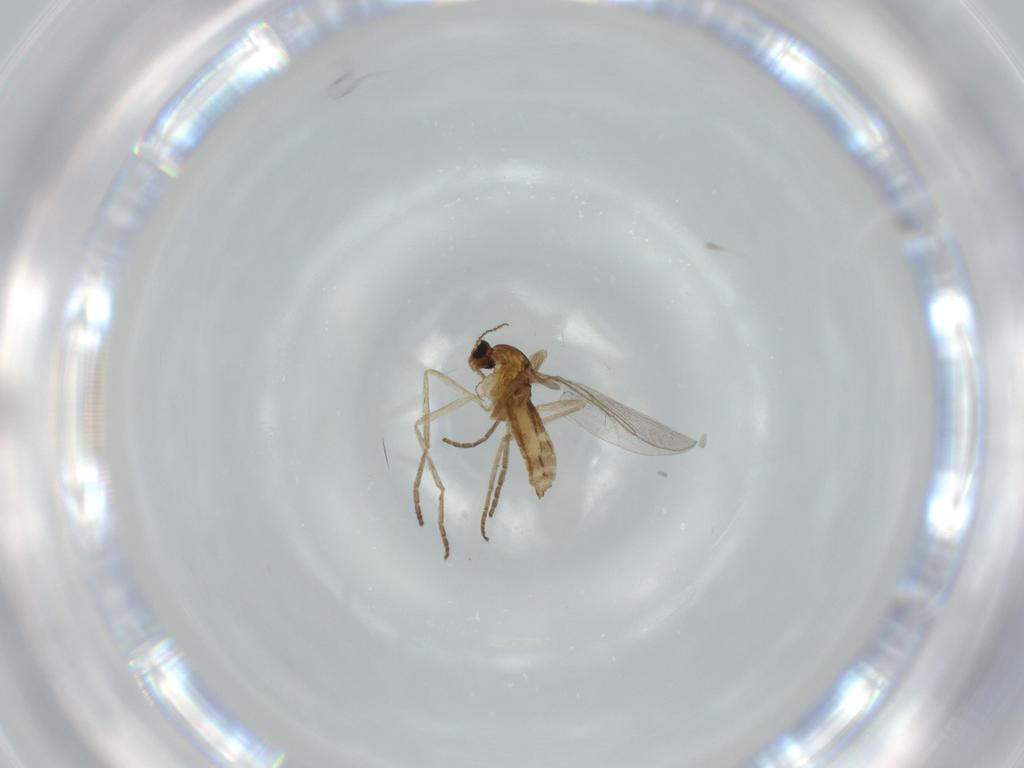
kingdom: Animalia
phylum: Arthropoda
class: Insecta
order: Diptera
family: Cecidomyiidae
